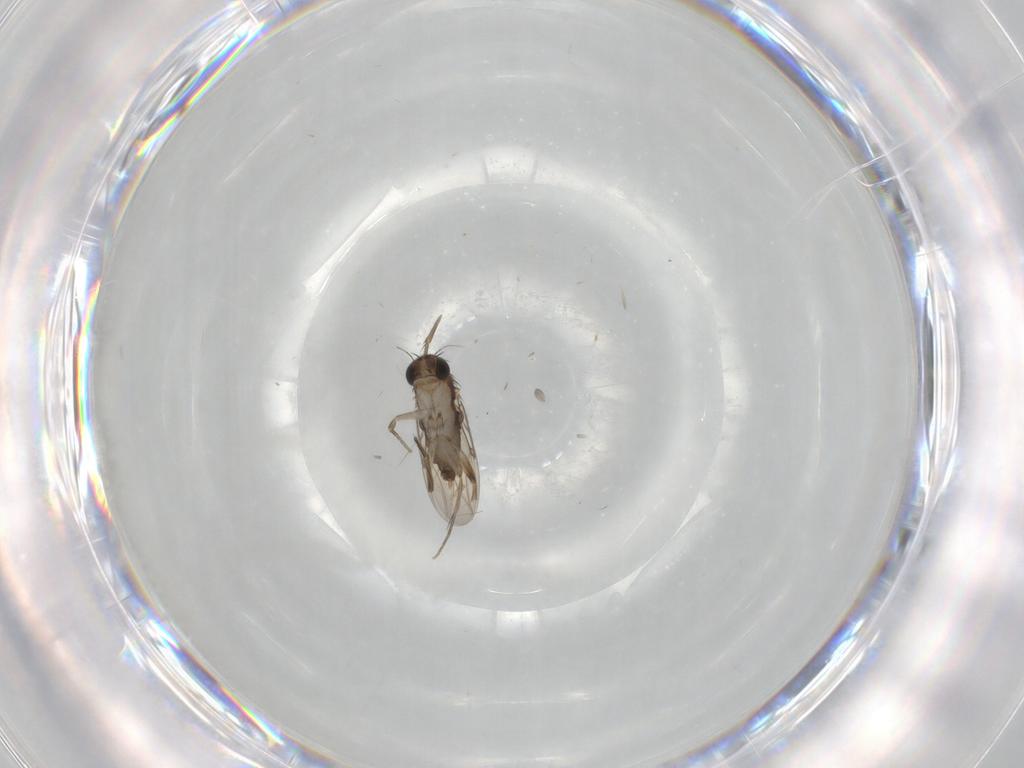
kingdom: Animalia
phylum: Arthropoda
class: Insecta
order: Diptera
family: Phoridae
